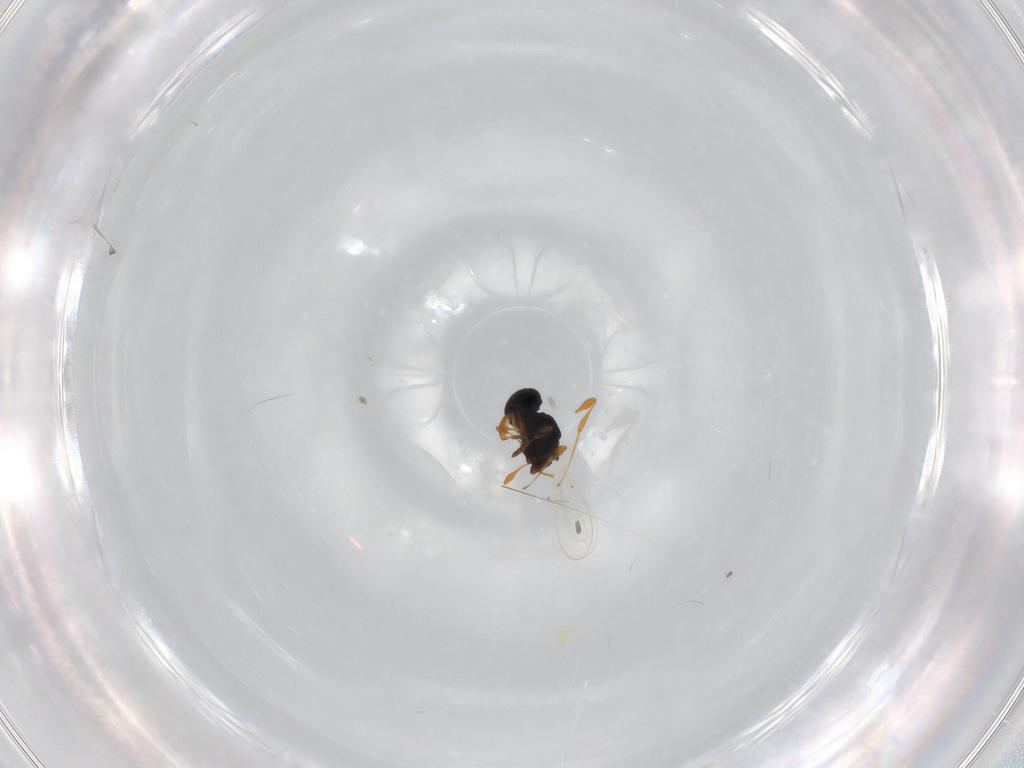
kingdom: Animalia
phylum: Arthropoda
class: Insecta
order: Hymenoptera
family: Platygastridae
